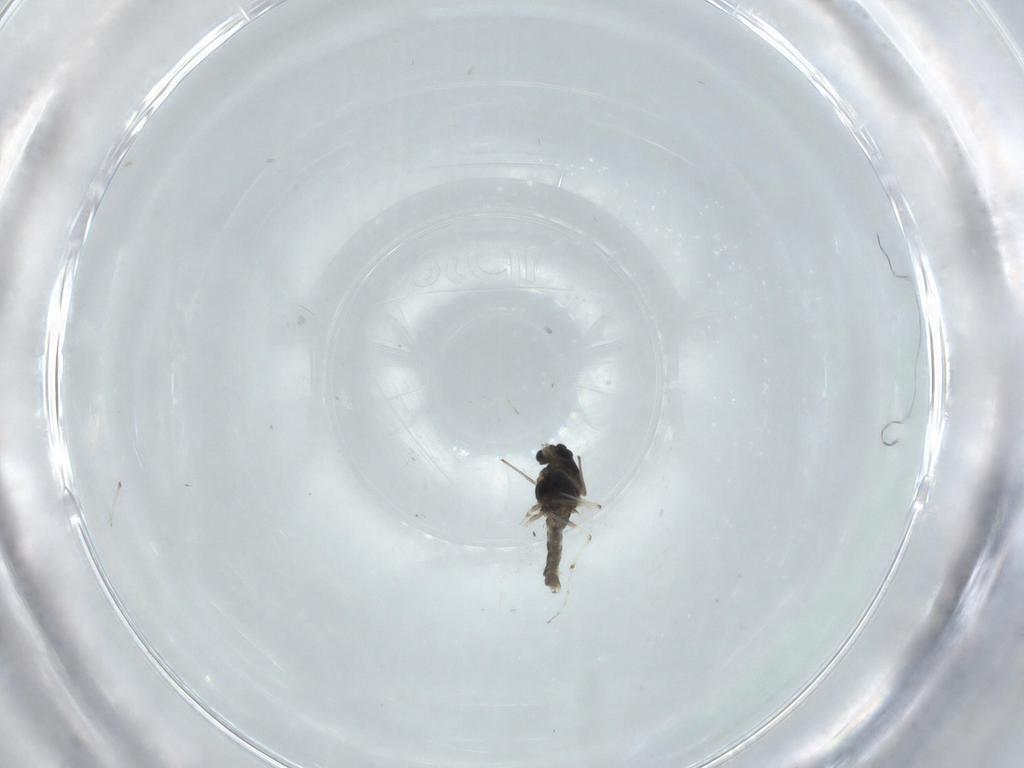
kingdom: Animalia
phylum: Arthropoda
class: Insecta
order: Diptera
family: Chironomidae
